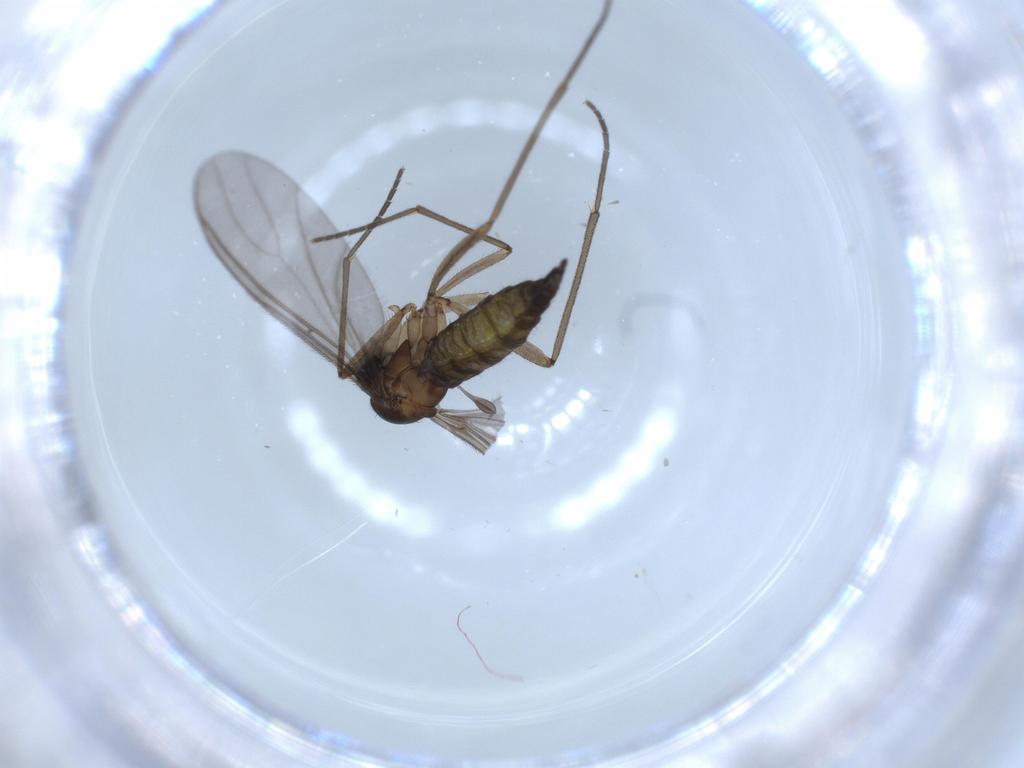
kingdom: Animalia
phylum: Arthropoda
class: Insecta
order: Diptera
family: Sciaridae
